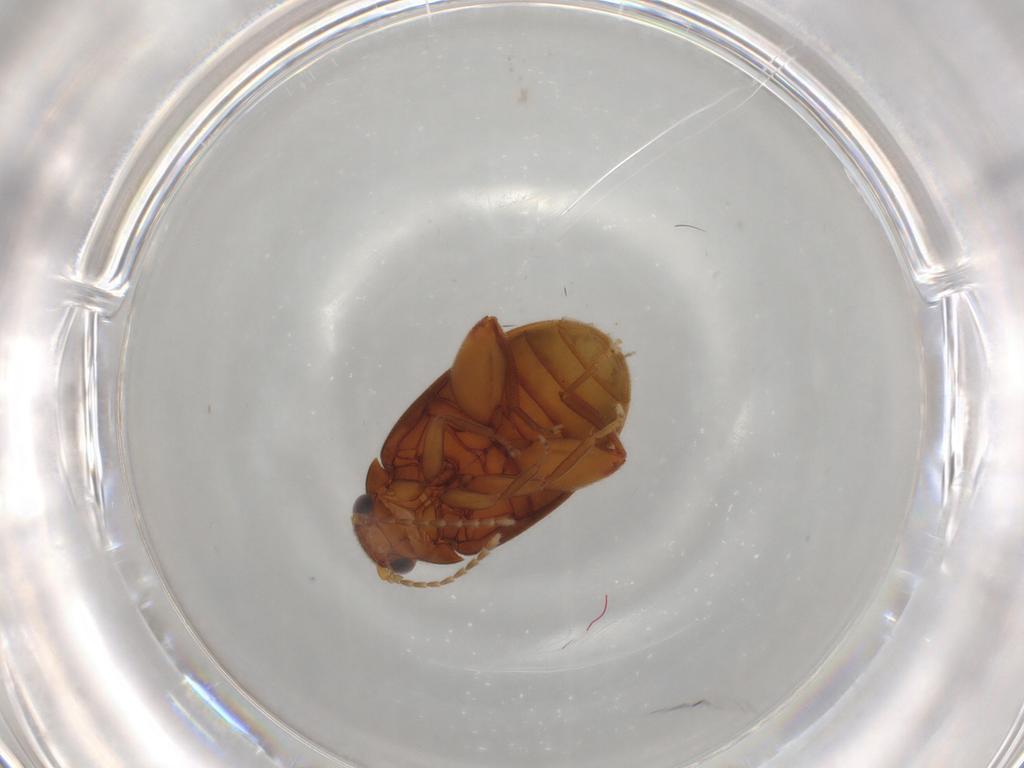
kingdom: Animalia
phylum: Arthropoda
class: Insecta
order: Coleoptera
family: Scirtidae
